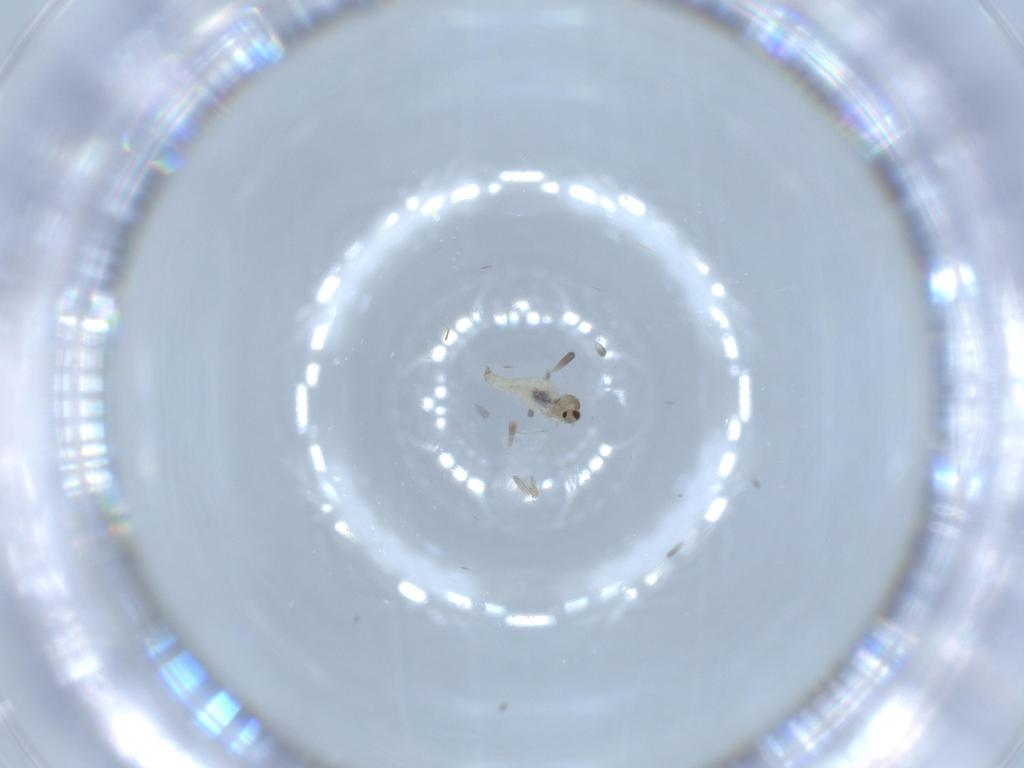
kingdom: Animalia
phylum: Arthropoda
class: Insecta
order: Diptera
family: Cecidomyiidae
